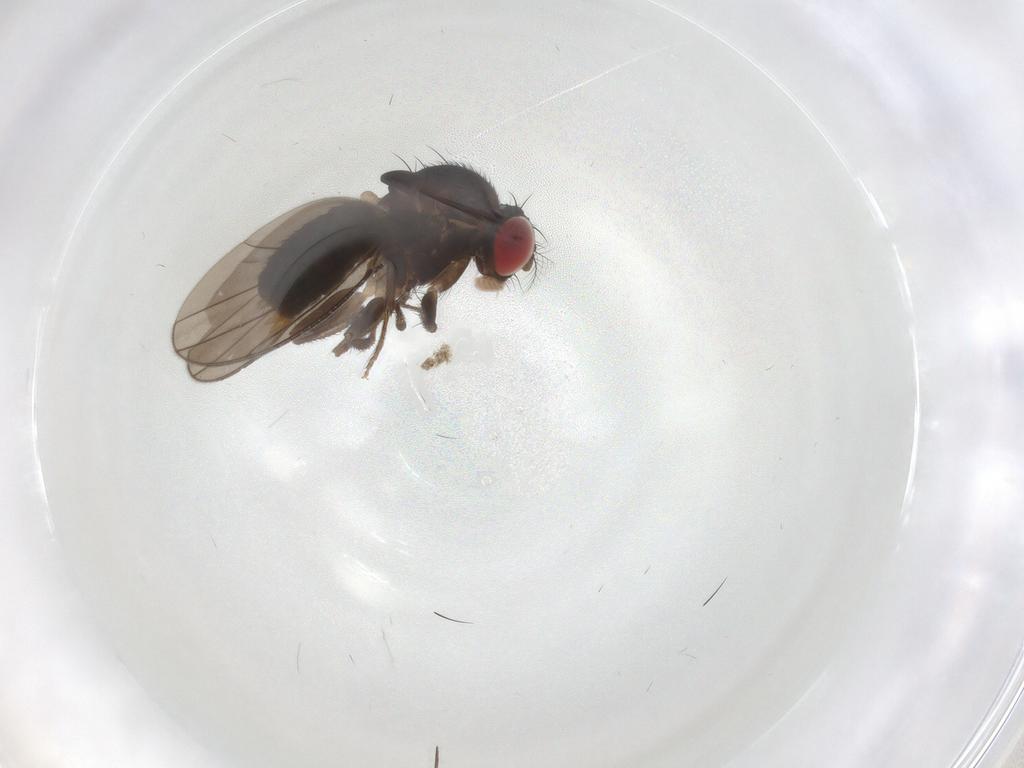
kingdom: Animalia
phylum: Arthropoda
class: Insecta
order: Diptera
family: Drosophilidae
